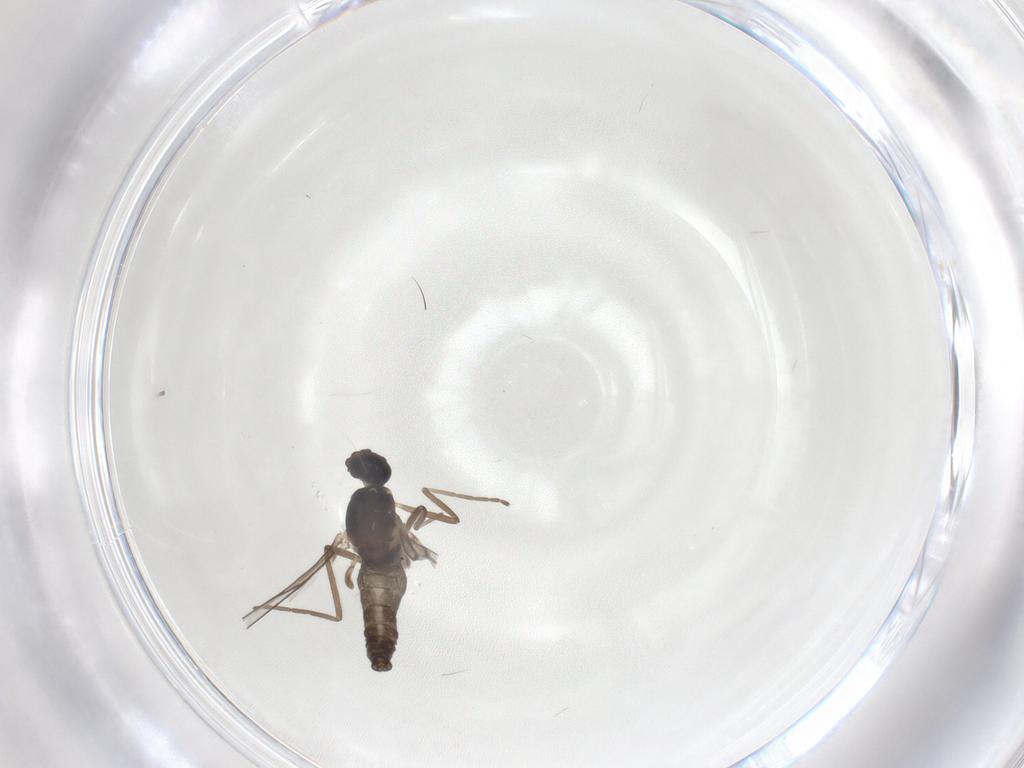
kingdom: Animalia
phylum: Arthropoda
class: Insecta
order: Diptera
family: Cecidomyiidae
